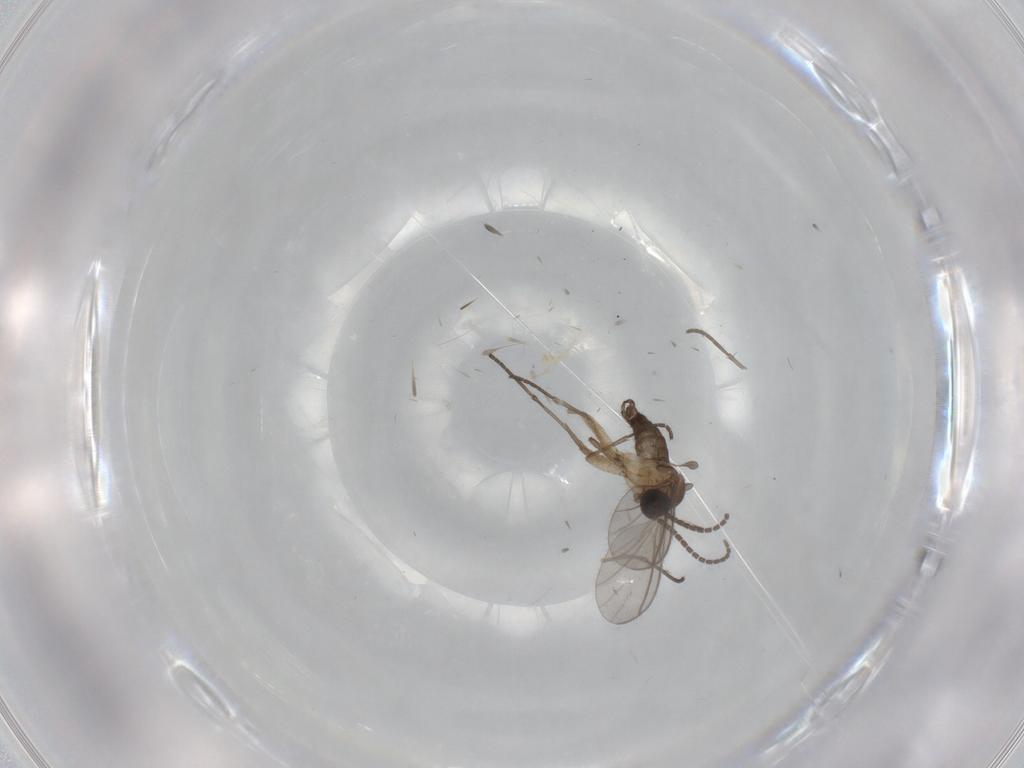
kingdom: Animalia
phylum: Arthropoda
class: Insecta
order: Diptera
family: Sciaridae
